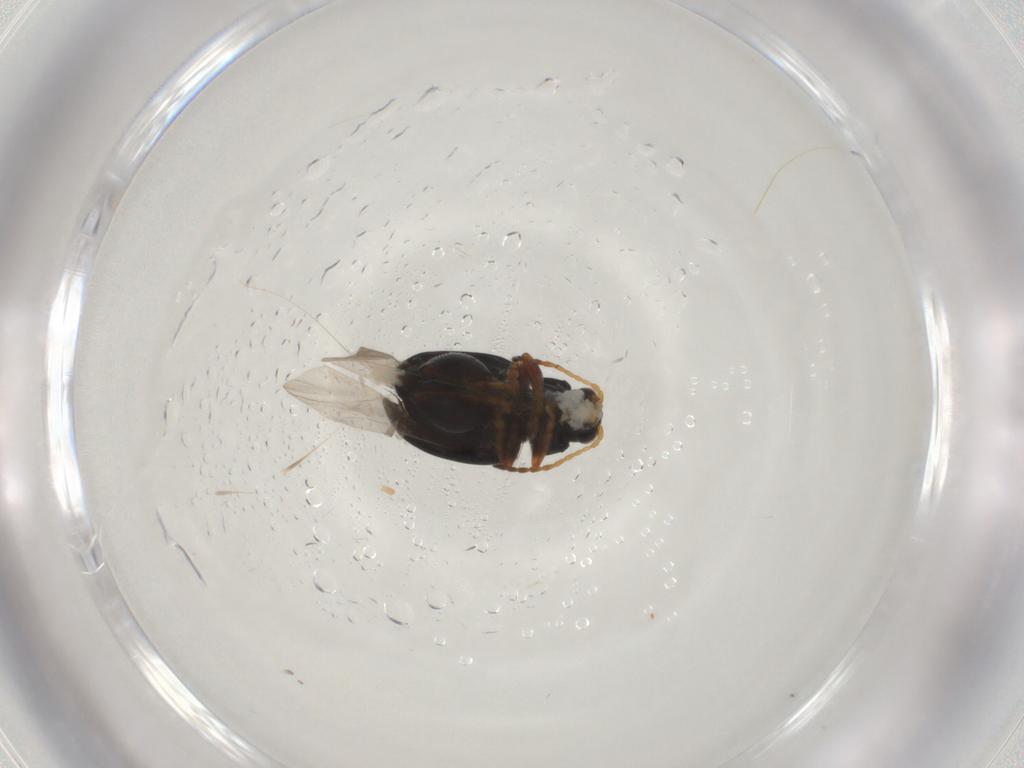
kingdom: Animalia
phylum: Arthropoda
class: Insecta
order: Coleoptera
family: Chrysomelidae
